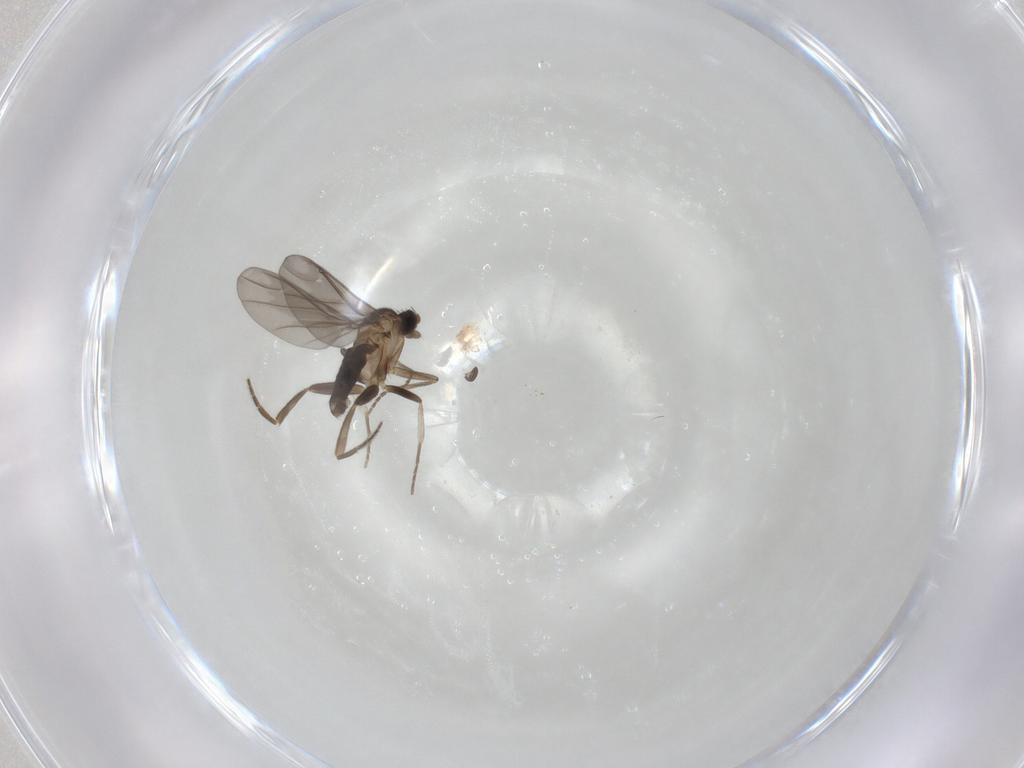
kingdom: Animalia
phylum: Arthropoda
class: Insecta
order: Diptera
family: Phoridae
